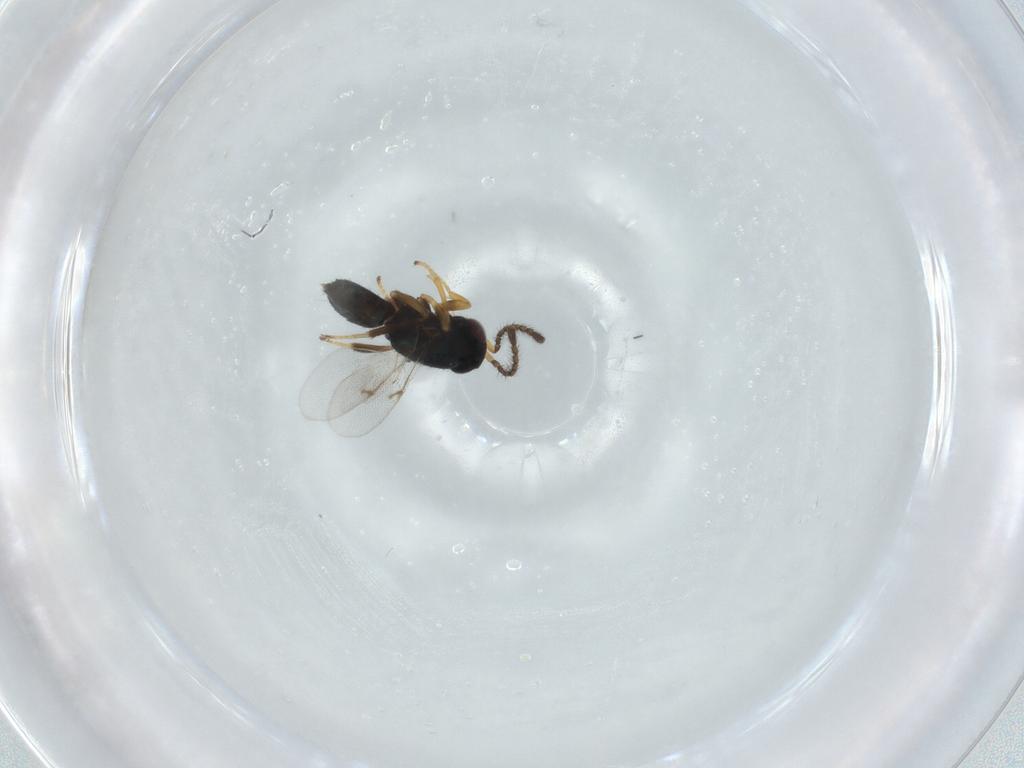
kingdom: Animalia
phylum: Arthropoda
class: Insecta
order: Hymenoptera
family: Encyrtidae
